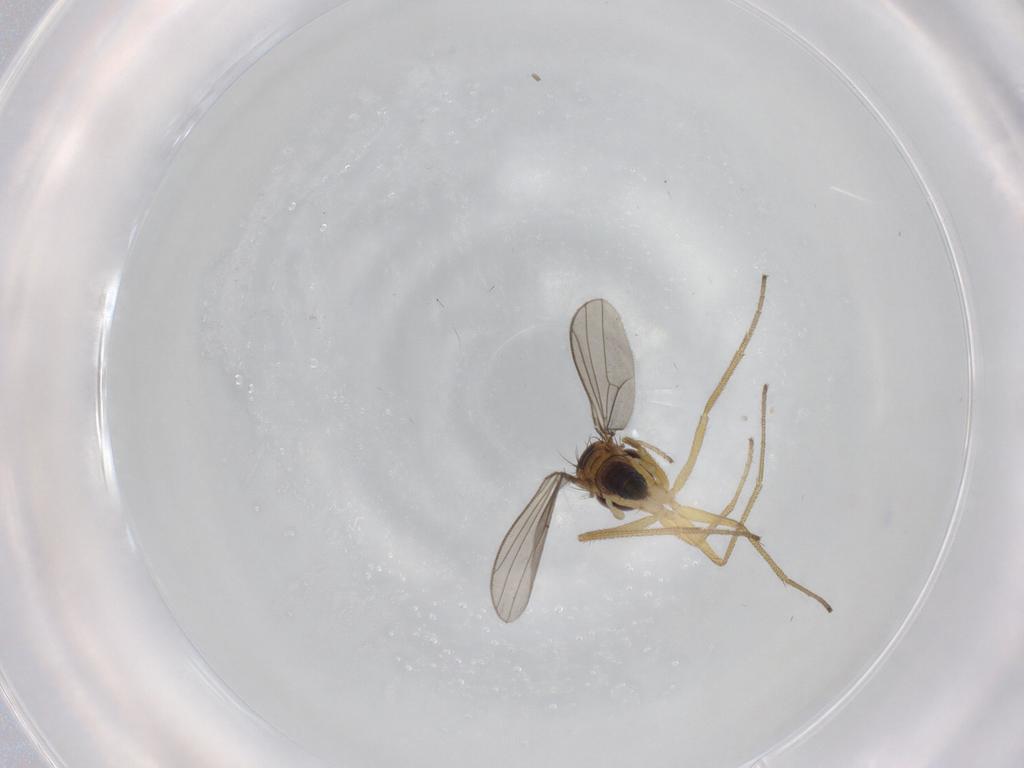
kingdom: Animalia
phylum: Arthropoda
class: Insecta
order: Diptera
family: Dolichopodidae
